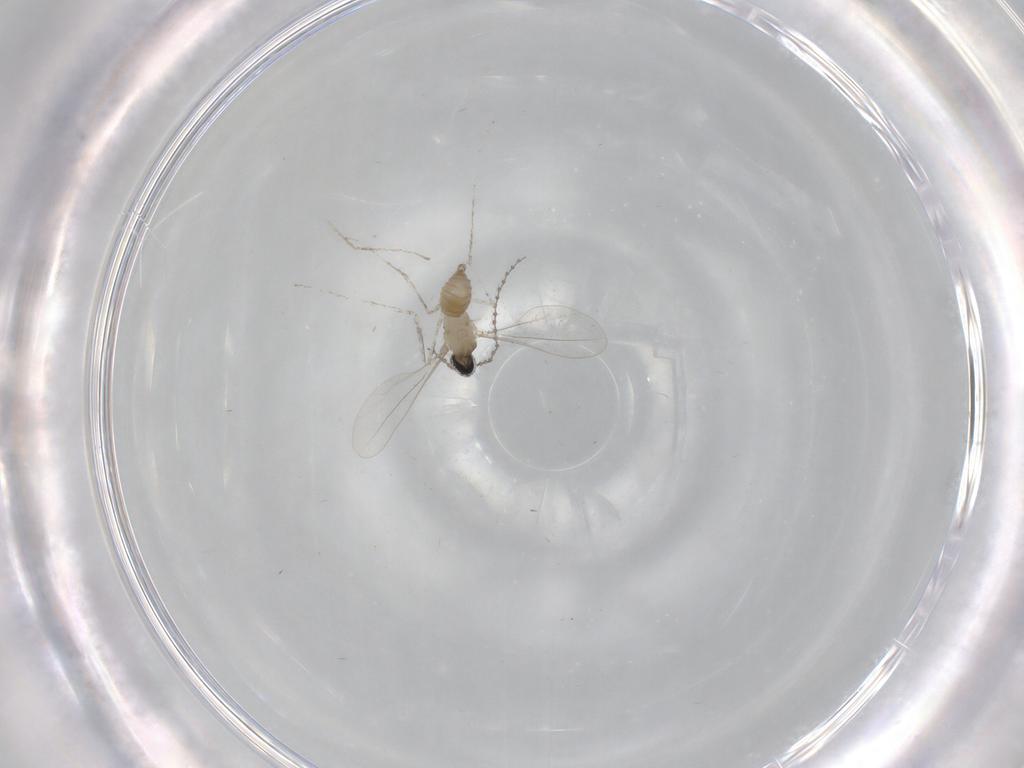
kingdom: Animalia
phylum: Arthropoda
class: Insecta
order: Diptera
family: Cecidomyiidae
